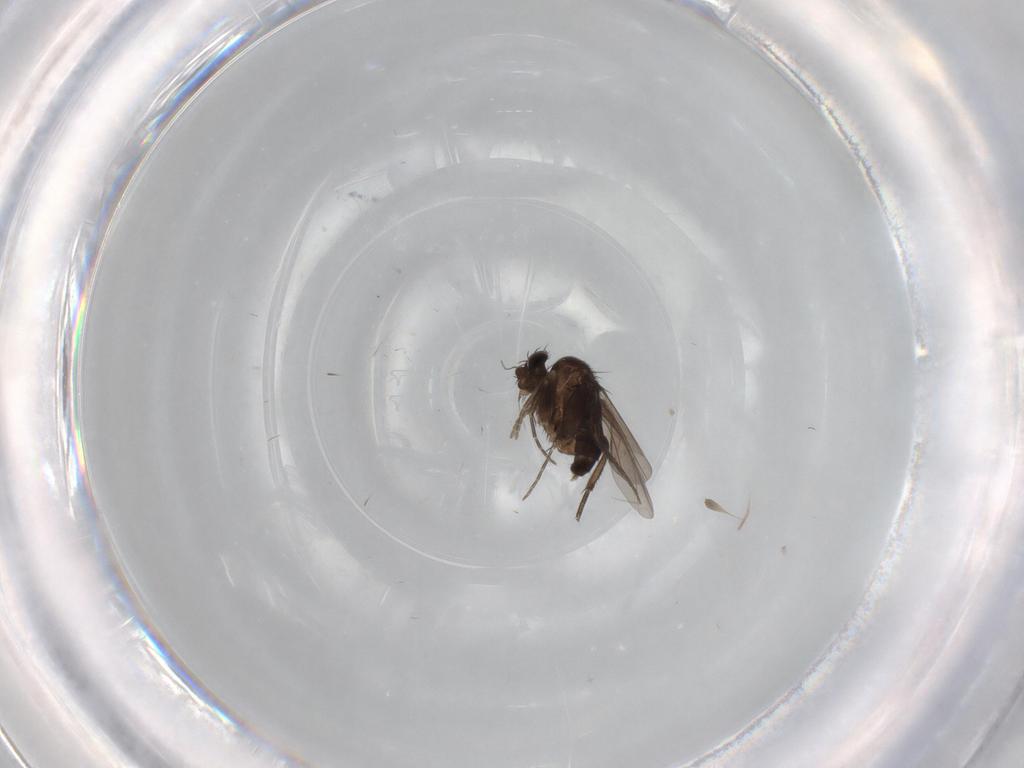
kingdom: Animalia
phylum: Arthropoda
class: Insecta
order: Diptera
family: Phoridae
